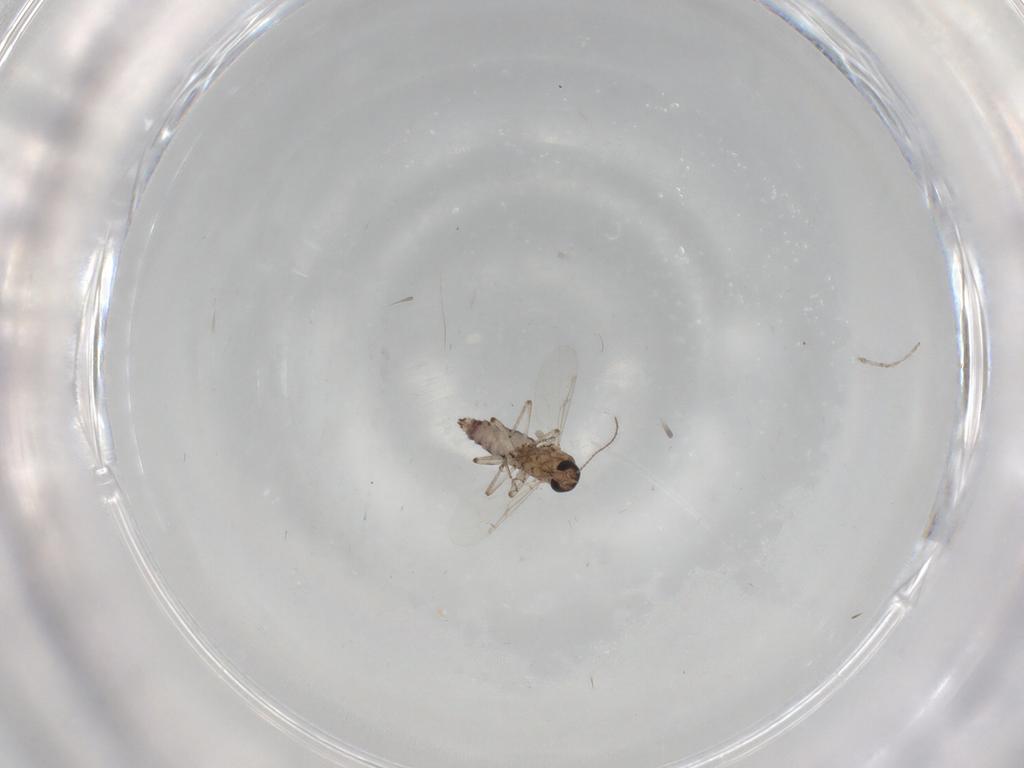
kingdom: Animalia
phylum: Arthropoda
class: Insecta
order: Diptera
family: Ceratopogonidae
